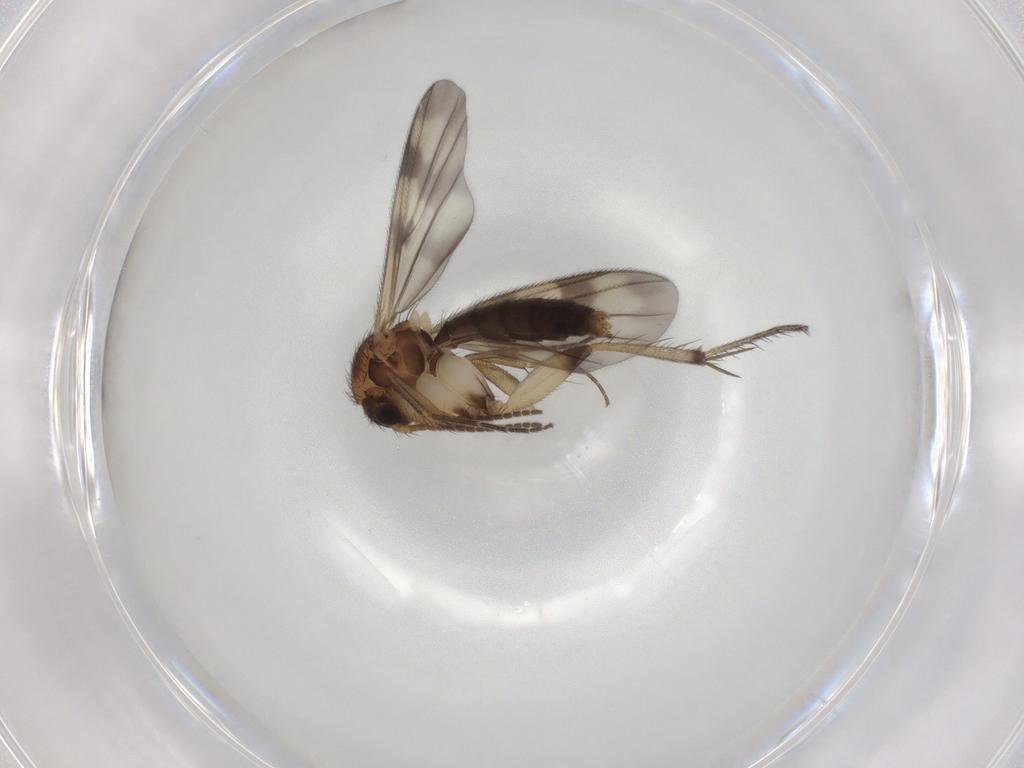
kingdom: Animalia
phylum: Arthropoda
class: Insecta
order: Diptera
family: Phoridae
